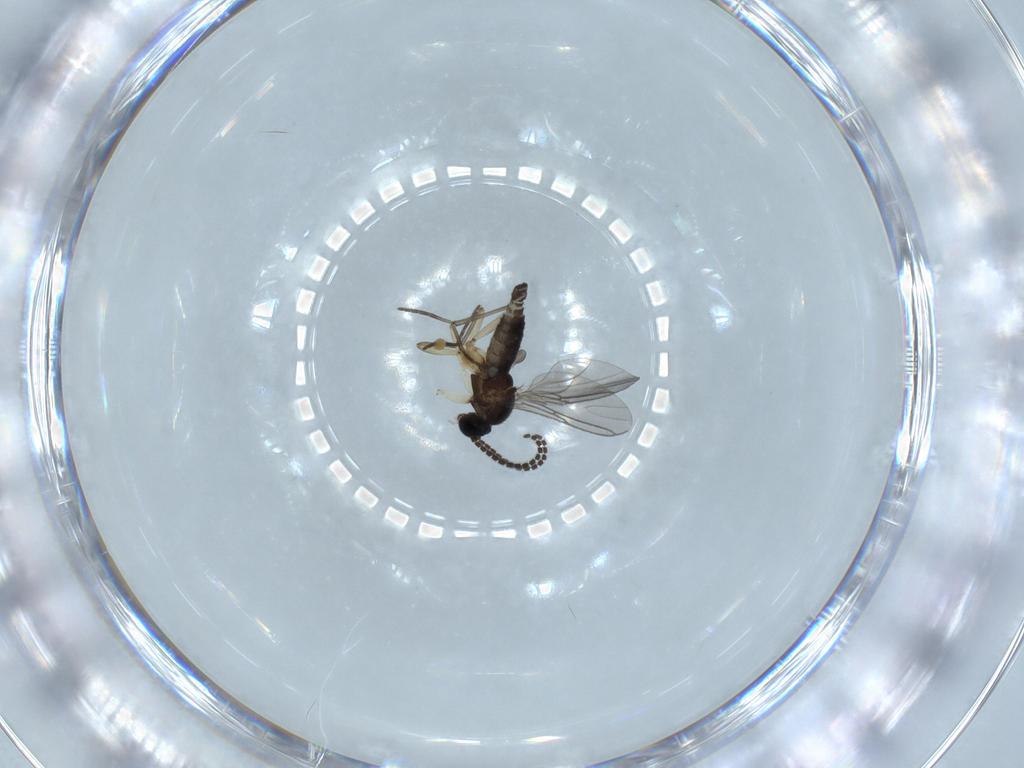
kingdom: Animalia
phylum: Arthropoda
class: Insecta
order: Diptera
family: Sciaridae
